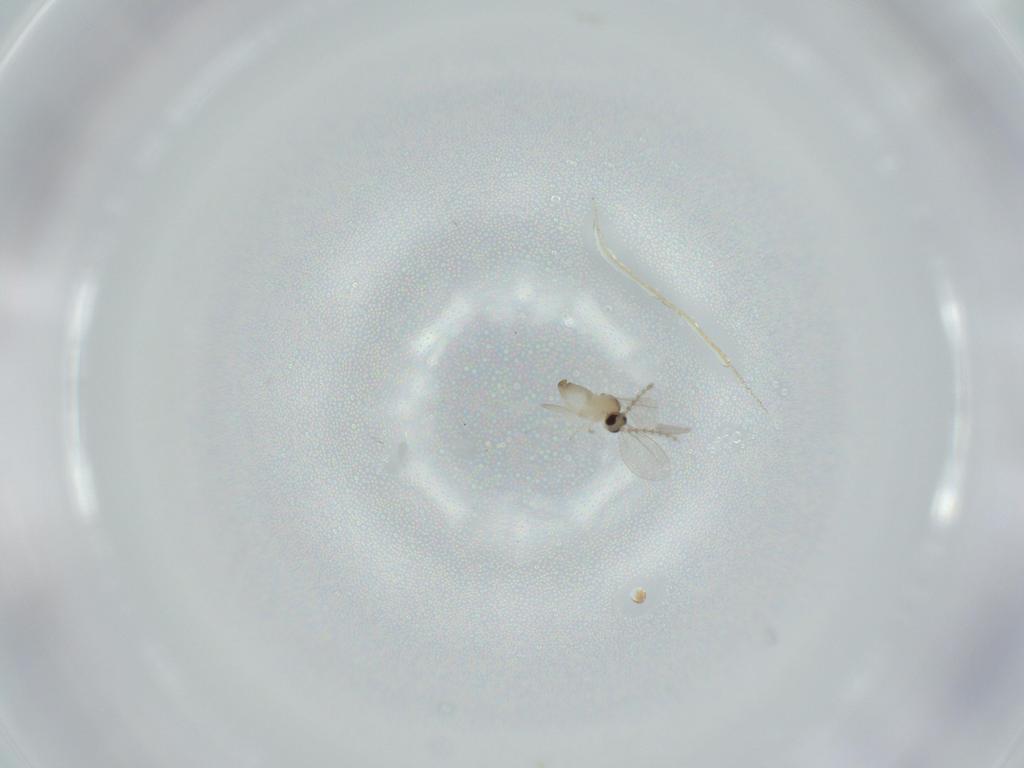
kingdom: Animalia
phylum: Arthropoda
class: Insecta
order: Diptera
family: Cecidomyiidae
